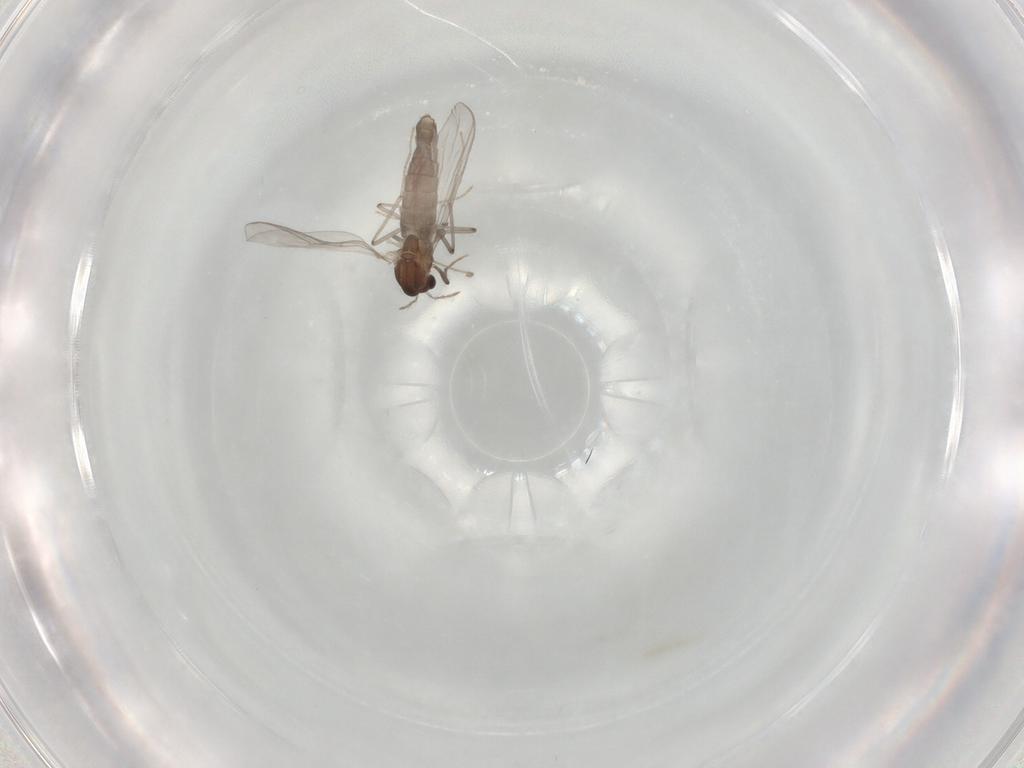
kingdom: Animalia
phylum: Arthropoda
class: Insecta
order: Diptera
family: Chironomidae
